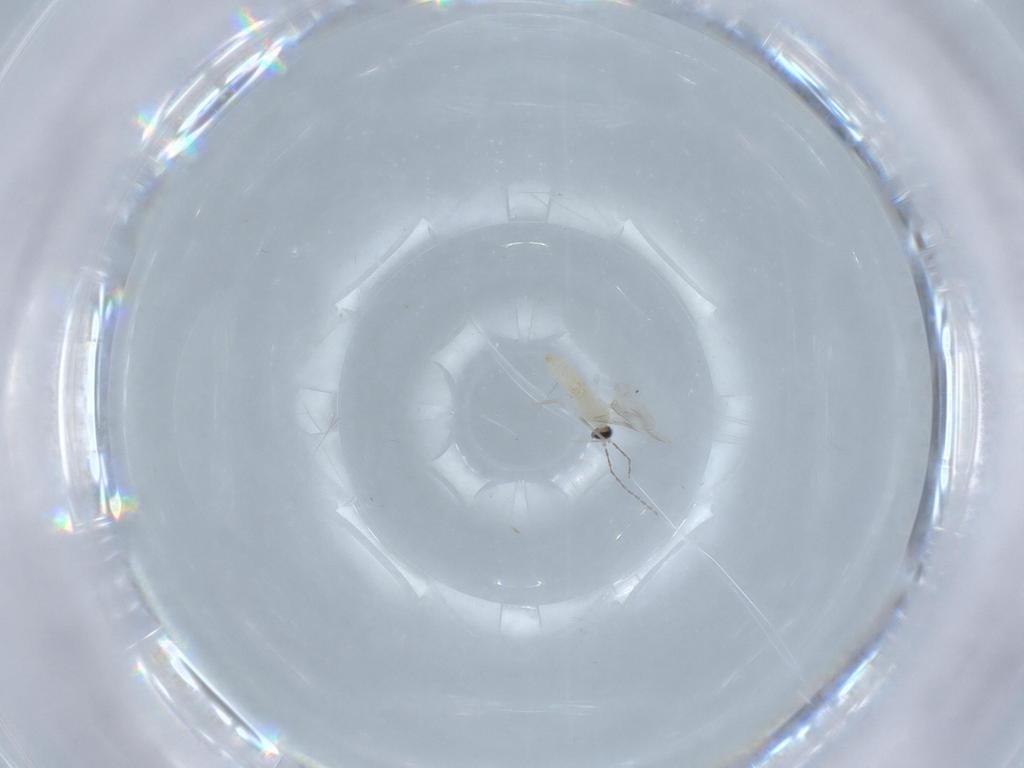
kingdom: Animalia
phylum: Arthropoda
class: Insecta
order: Diptera
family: Cecidomyiidae
